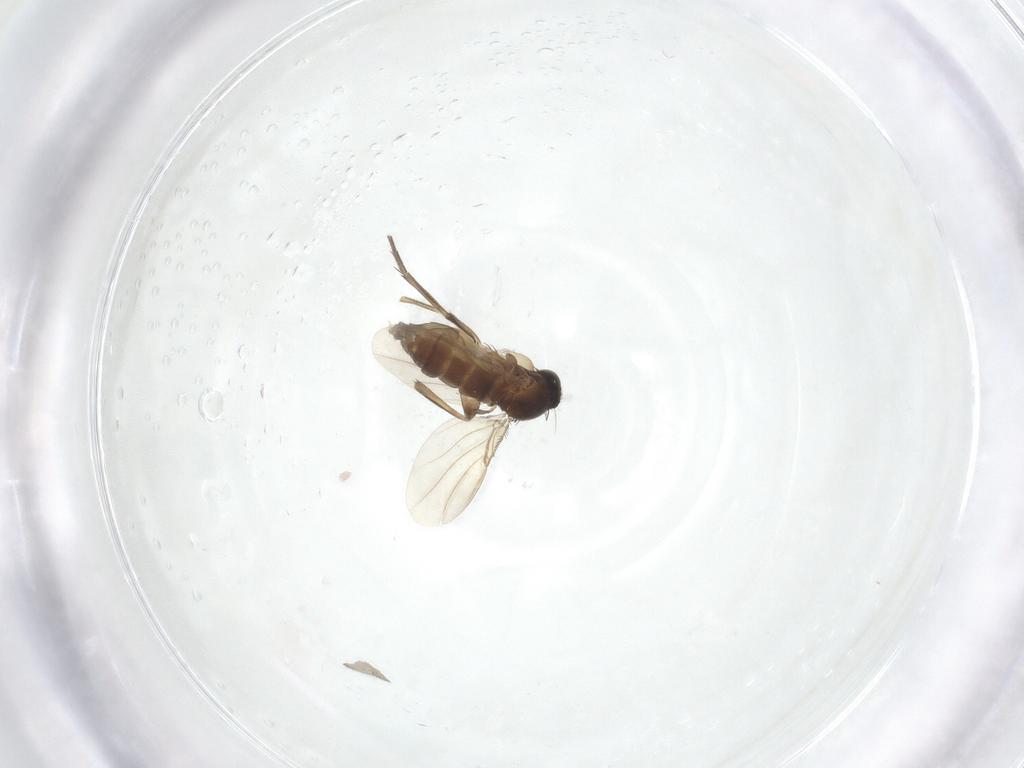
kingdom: Animalia
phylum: Arthropoda
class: Insecta
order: Diptera
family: Phoridae
